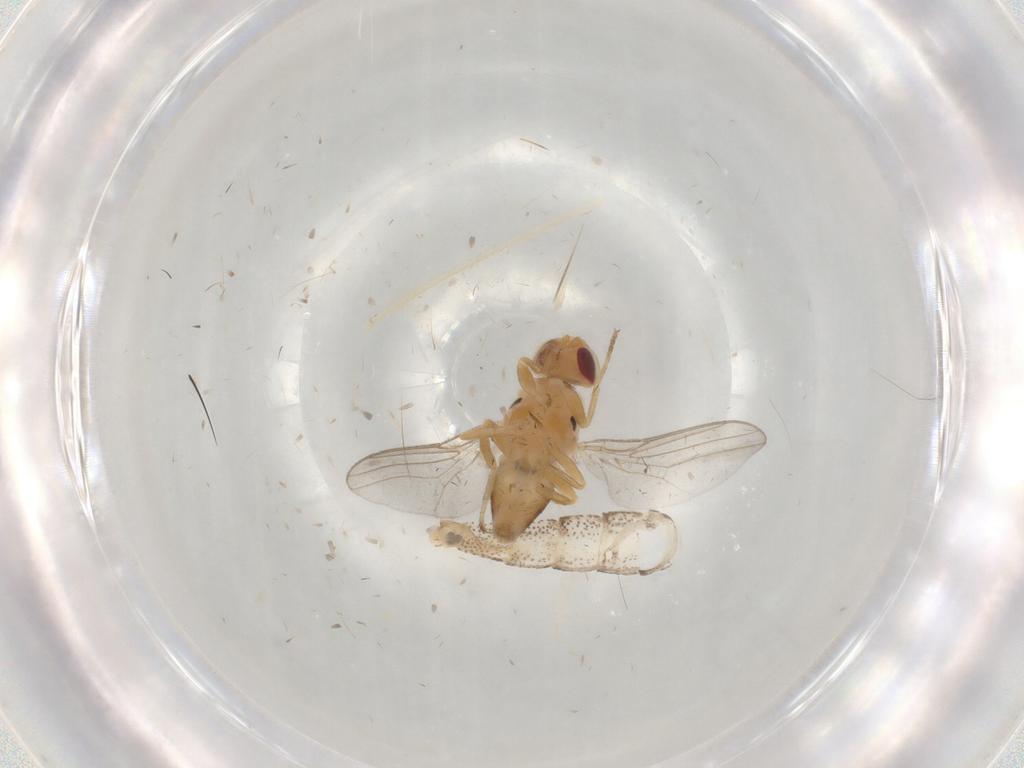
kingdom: Animalia
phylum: Arthropoda
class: Insecta
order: Diptera
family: Chloropidae
